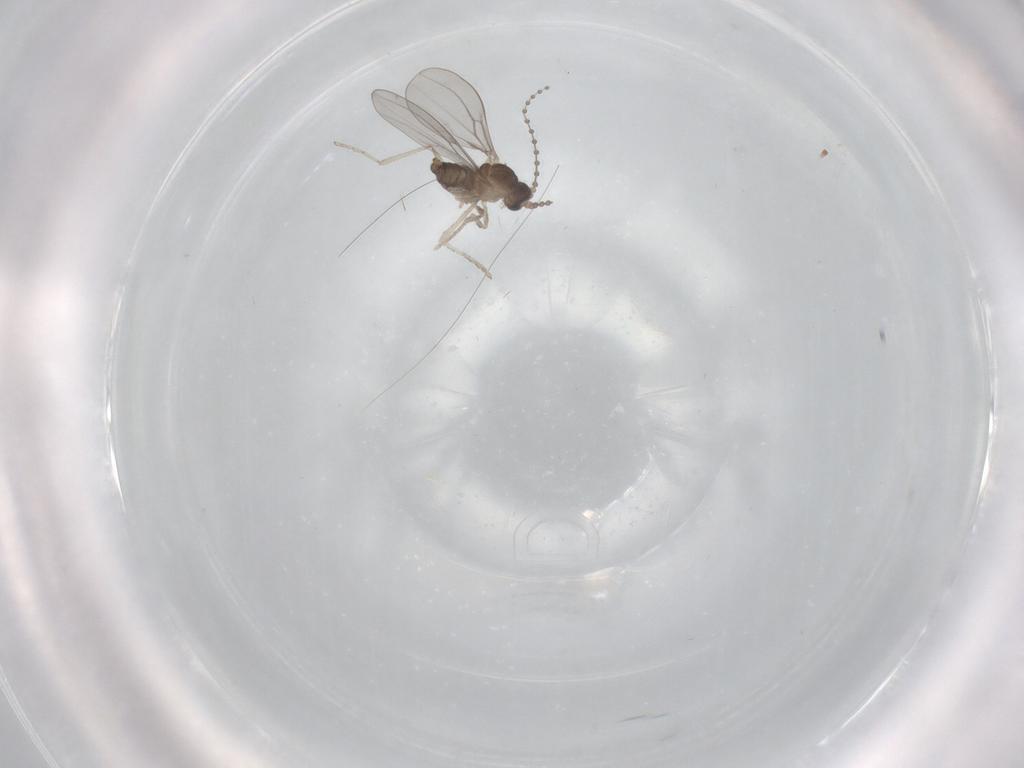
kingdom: Animalia
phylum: Arthropoda
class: Insecta
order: Diptera
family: Cecidomyiidae
